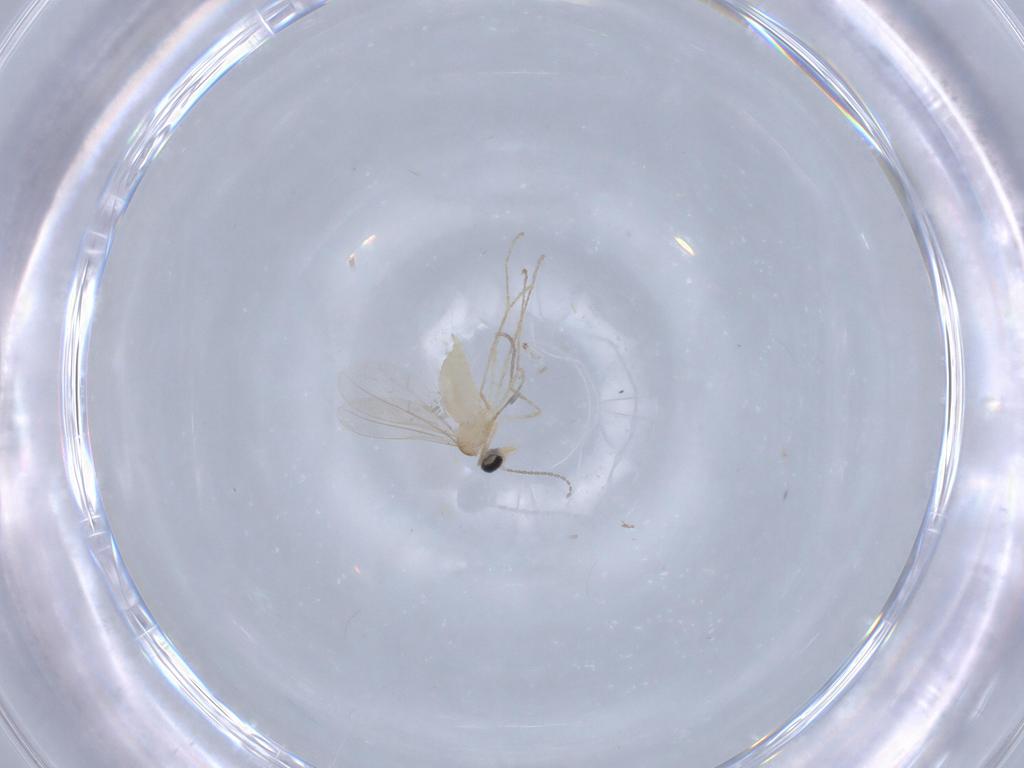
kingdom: Animalia
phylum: Arthropoda
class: Insecta
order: Diptera
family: Cecidomyiidae
